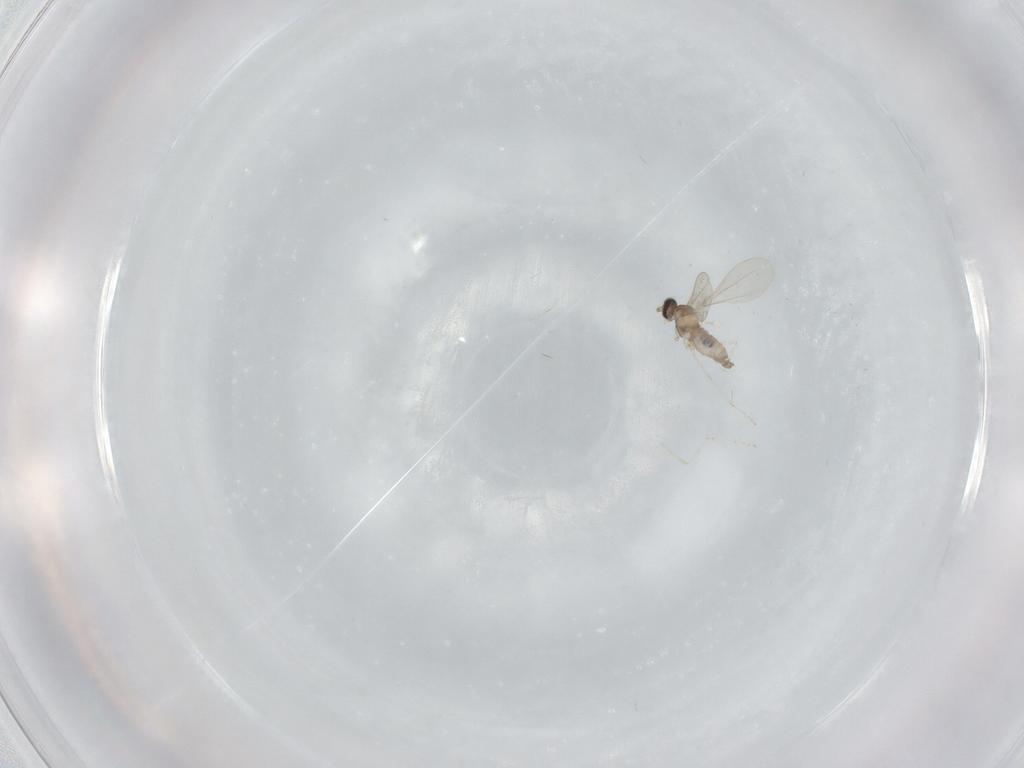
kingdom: Animalia
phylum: Arthropoda
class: Insecta
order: Diptera
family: Cecidomyiidae
